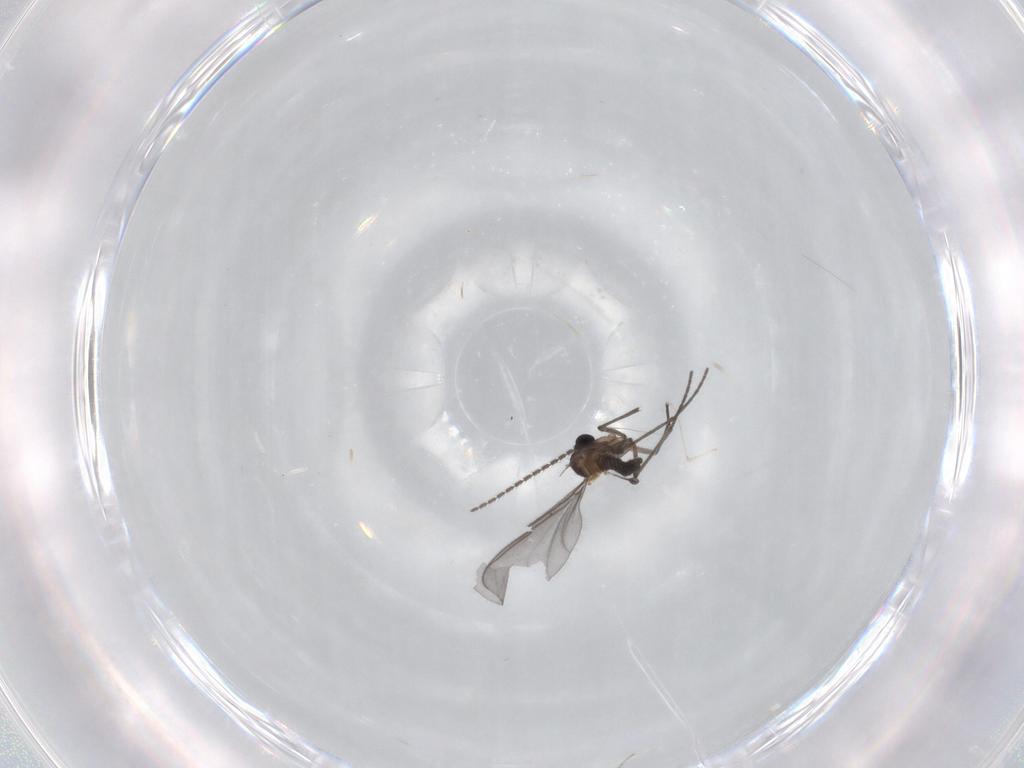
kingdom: Animalia
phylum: Arthropoda
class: Insecta
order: Diptera
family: Sciaridae
